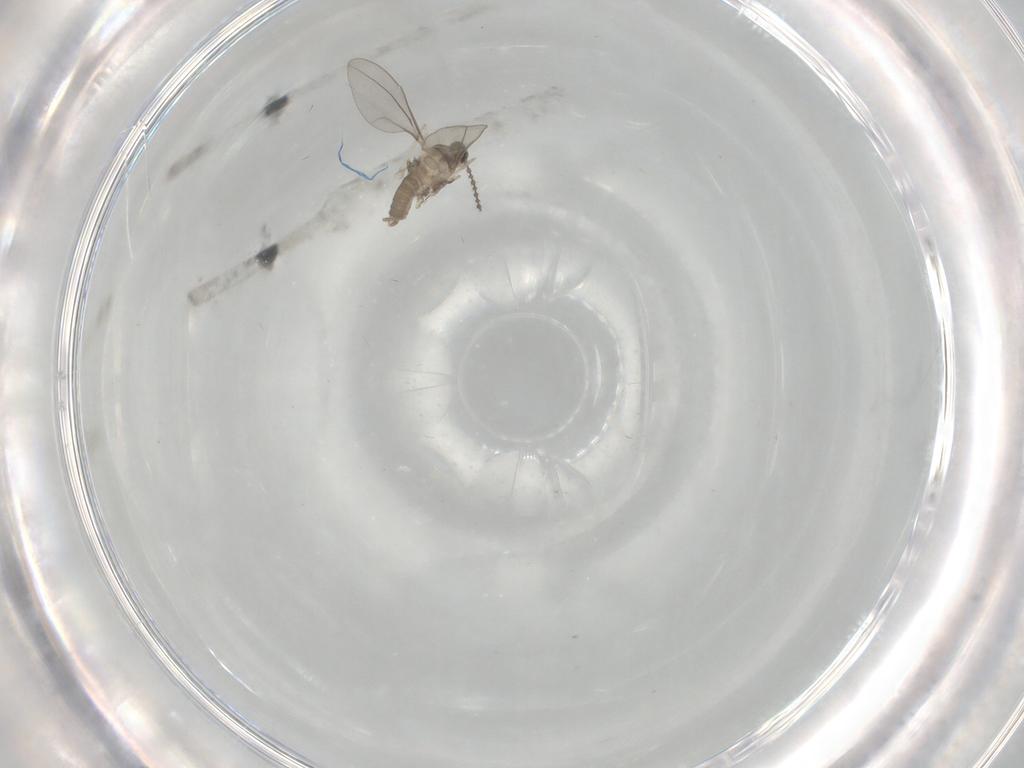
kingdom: Animalia
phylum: Arthropoda
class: Insecta
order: Diptera
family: Cecidomyiidae
